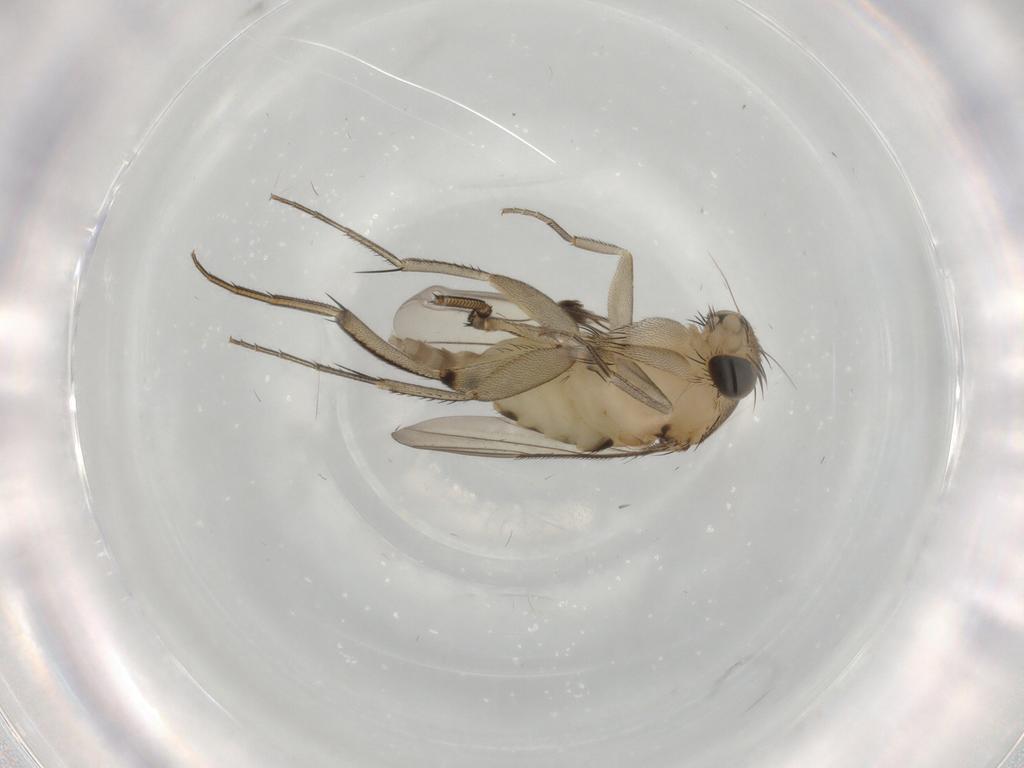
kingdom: Animalia
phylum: Arthropoda
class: Insecta
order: Diptera
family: Phoridae
